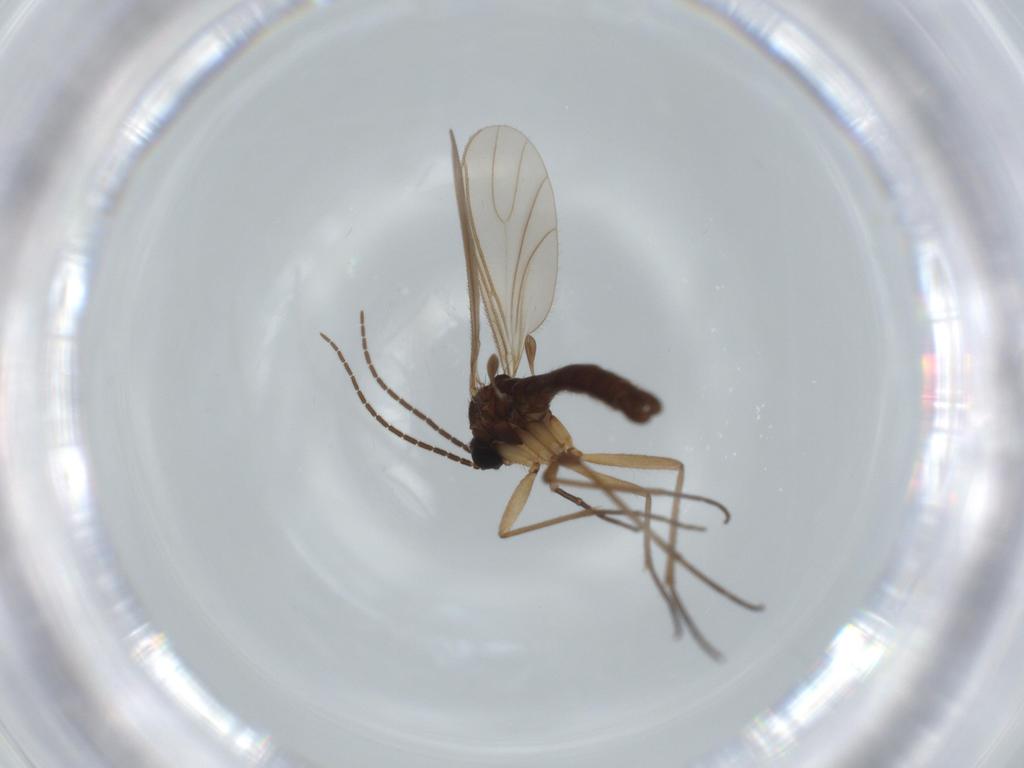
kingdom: Animalia
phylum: Arthropoda
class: Insecta
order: Diptera
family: Sciaridae
